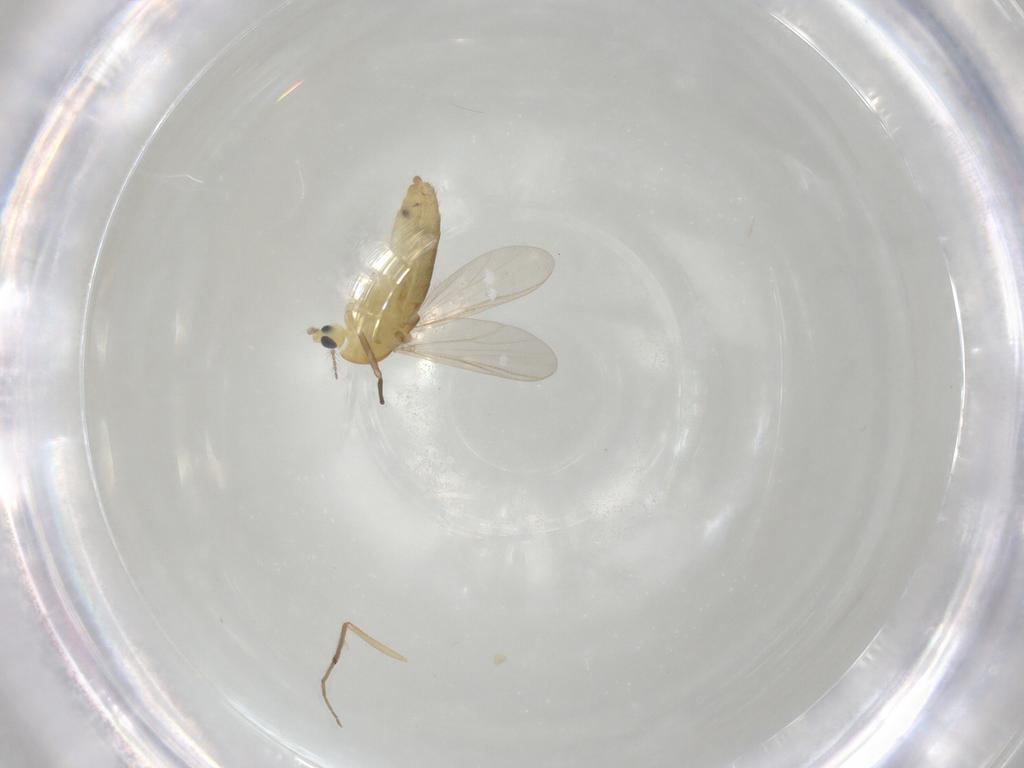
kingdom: Animalia
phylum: Arthropoda
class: Insecta
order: Diptera
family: Chironomidae
